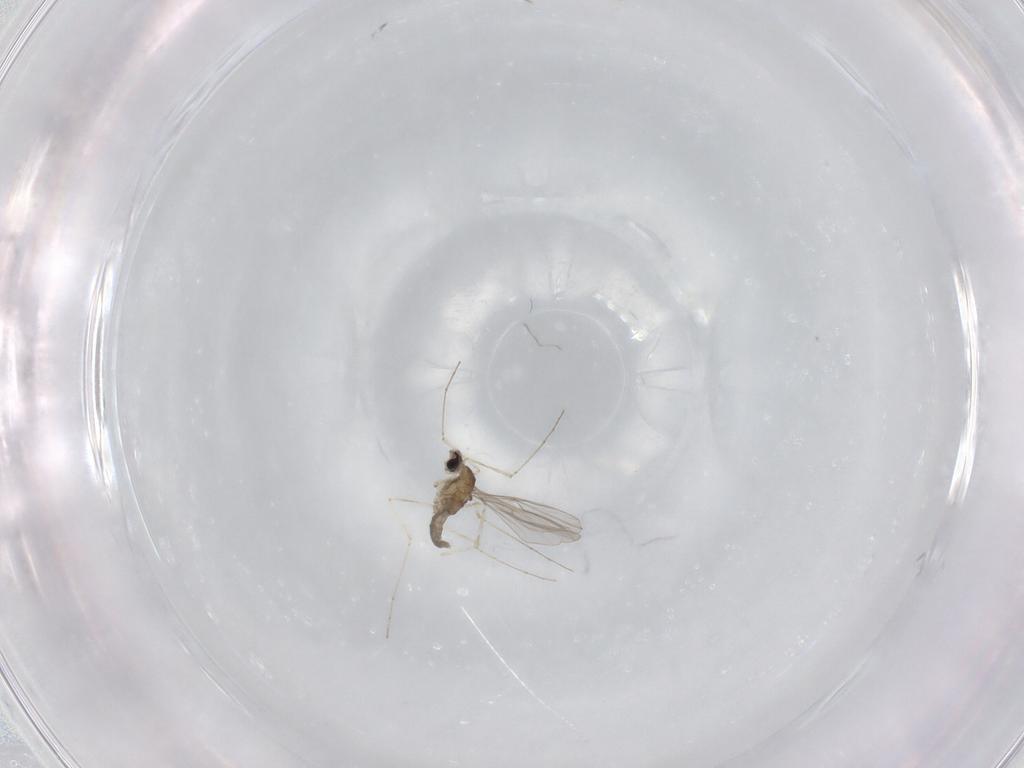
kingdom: Animalia
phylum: Arthropoda
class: Insecta
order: Diptera
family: Cecidomyiidae
